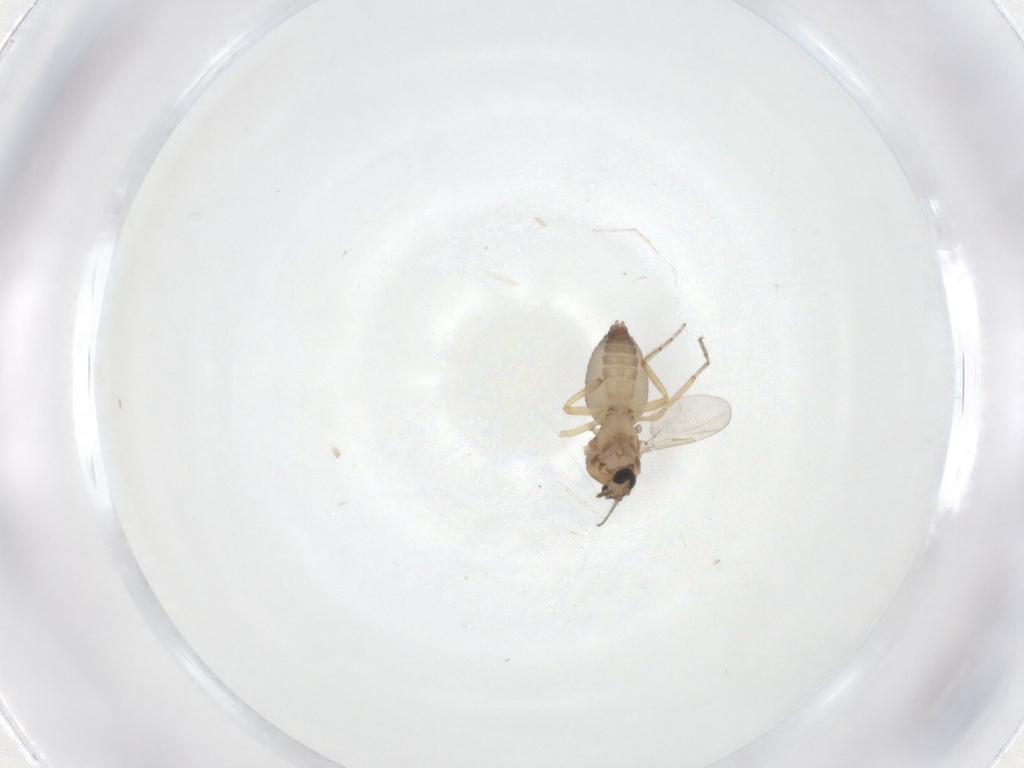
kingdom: Animalia
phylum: Arthropoda
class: Insecta
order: Diptera
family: Ceratopogonidae
